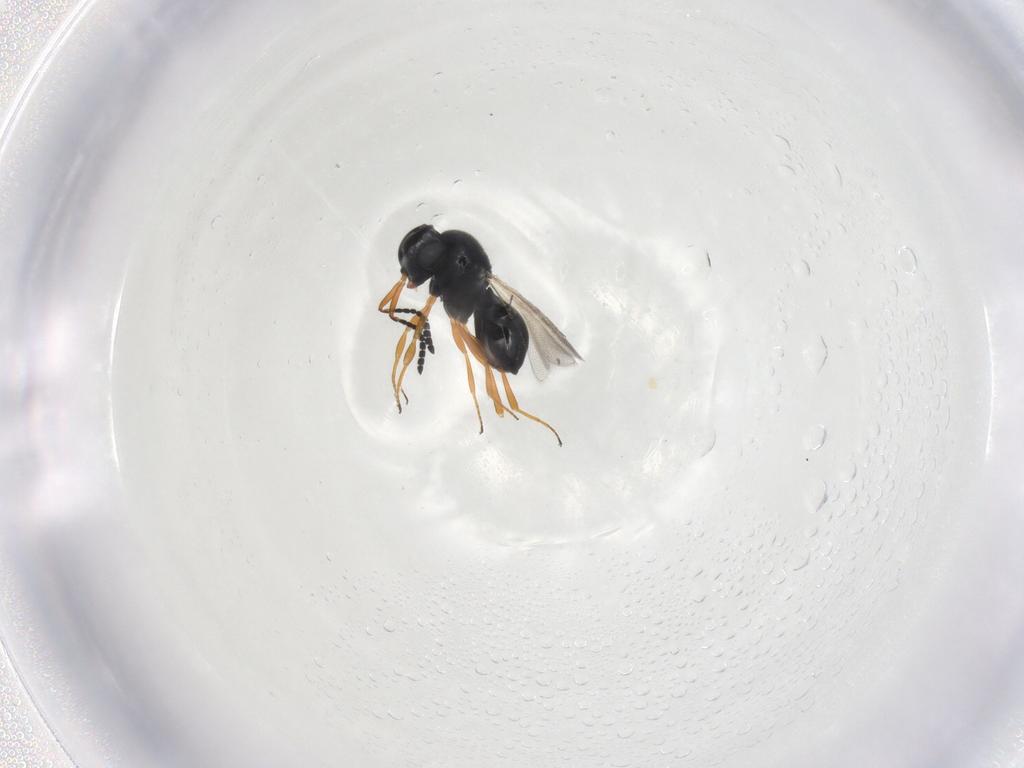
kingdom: Animalia
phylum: Arthropoda
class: Insecta
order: Hymenoptera
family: Scelionidae
